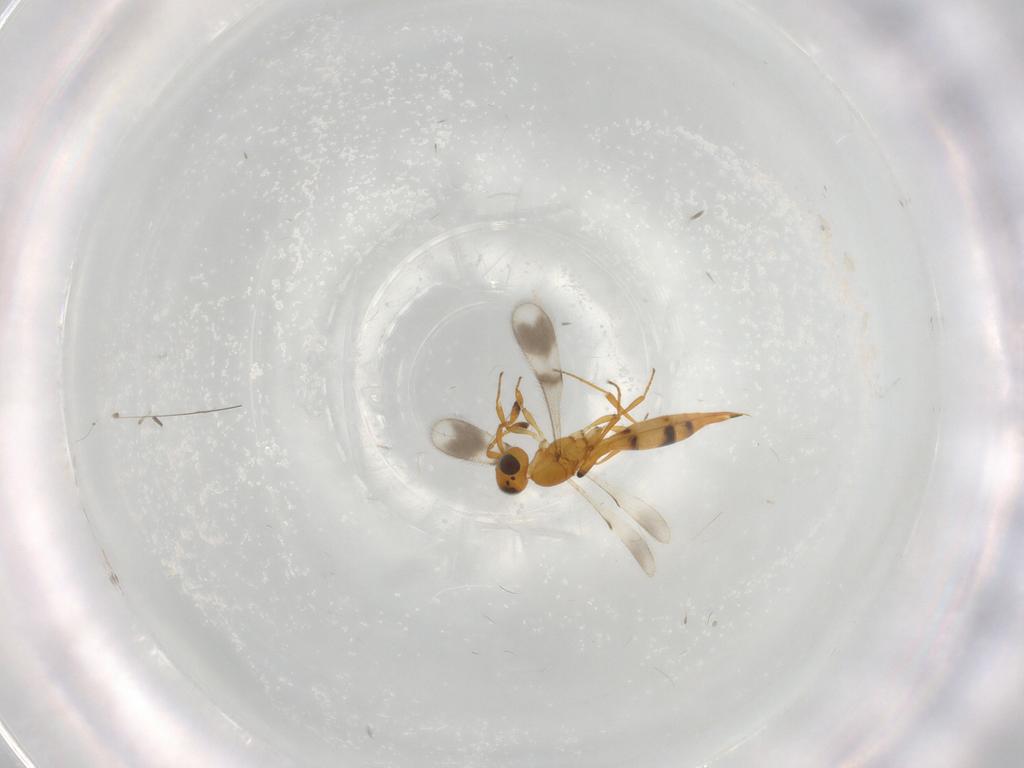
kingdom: Animalia
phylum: Arthropoda
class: Insecta
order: Hymenoptera
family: Scelionidae
